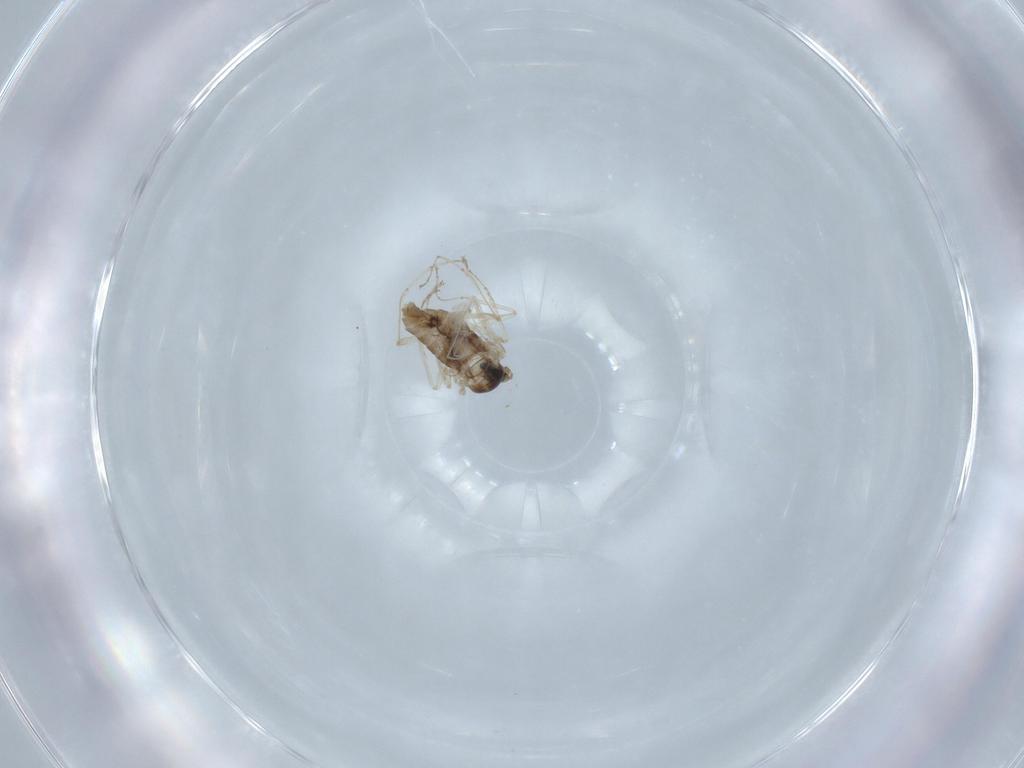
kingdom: Animalia
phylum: Arthropoda
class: Insecta
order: Diptera
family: Cecidomyiidae
